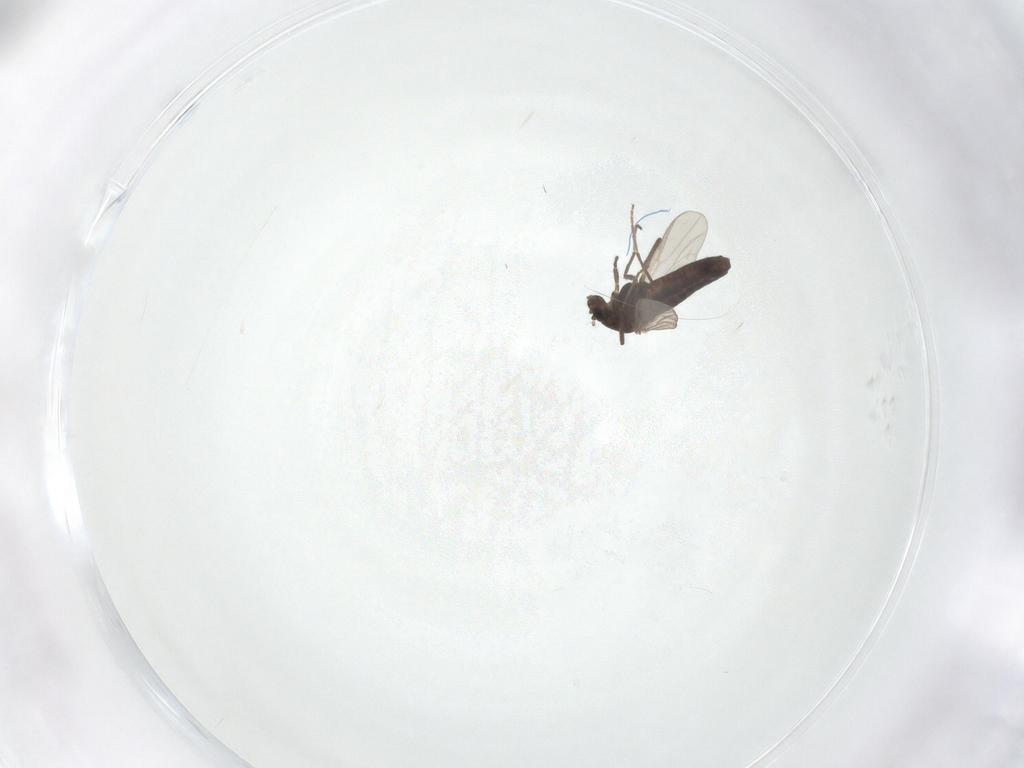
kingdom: Animalia
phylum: Arthropoda
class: Insecta
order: Diptera
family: Chironomidae
